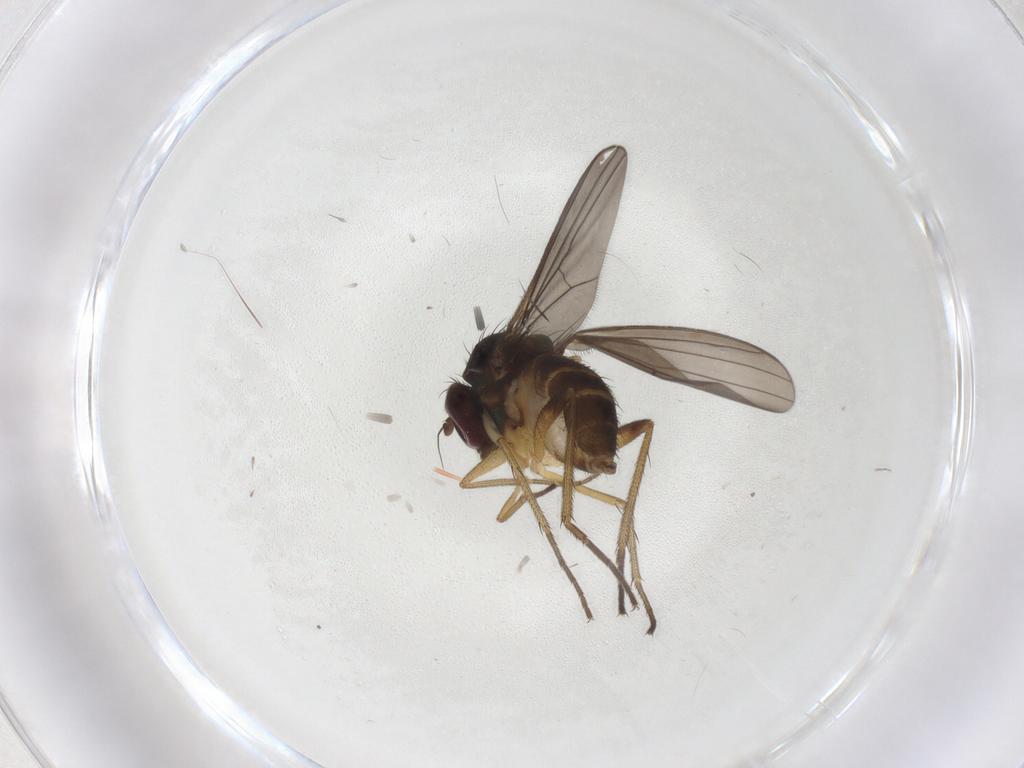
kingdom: Animalia
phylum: Arthropoda
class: Insecta
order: Diptera
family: Dolichopodidae
